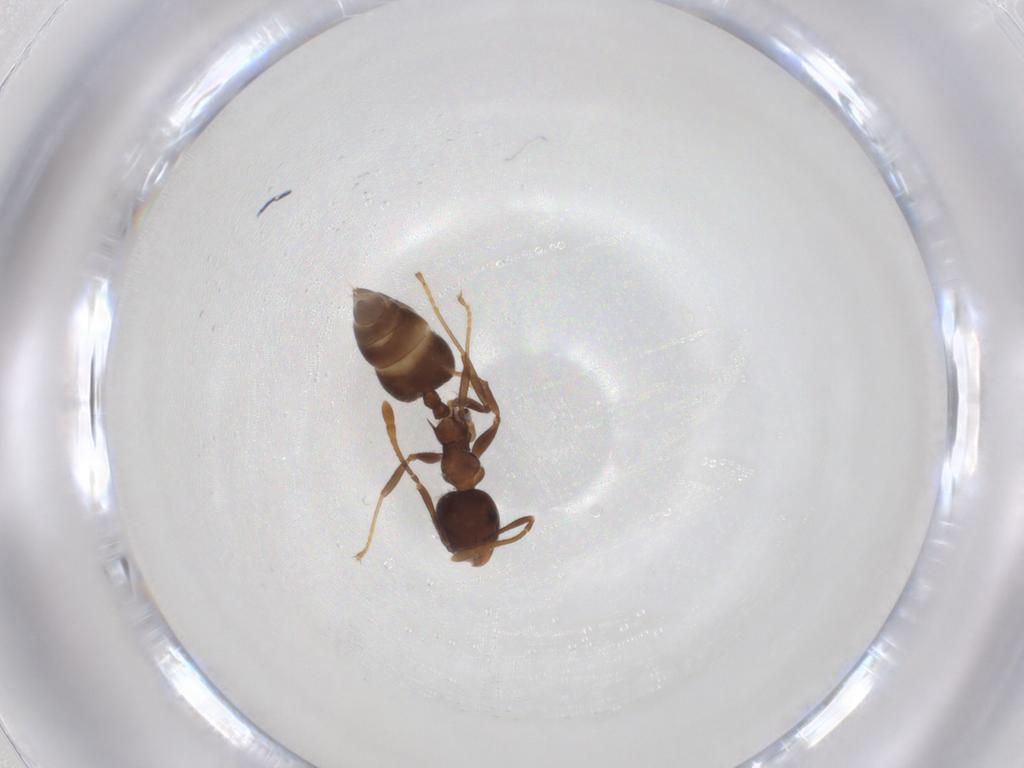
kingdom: Animalia
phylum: Arthropoda
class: Insecta
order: Hymenoptera
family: Formicidae
